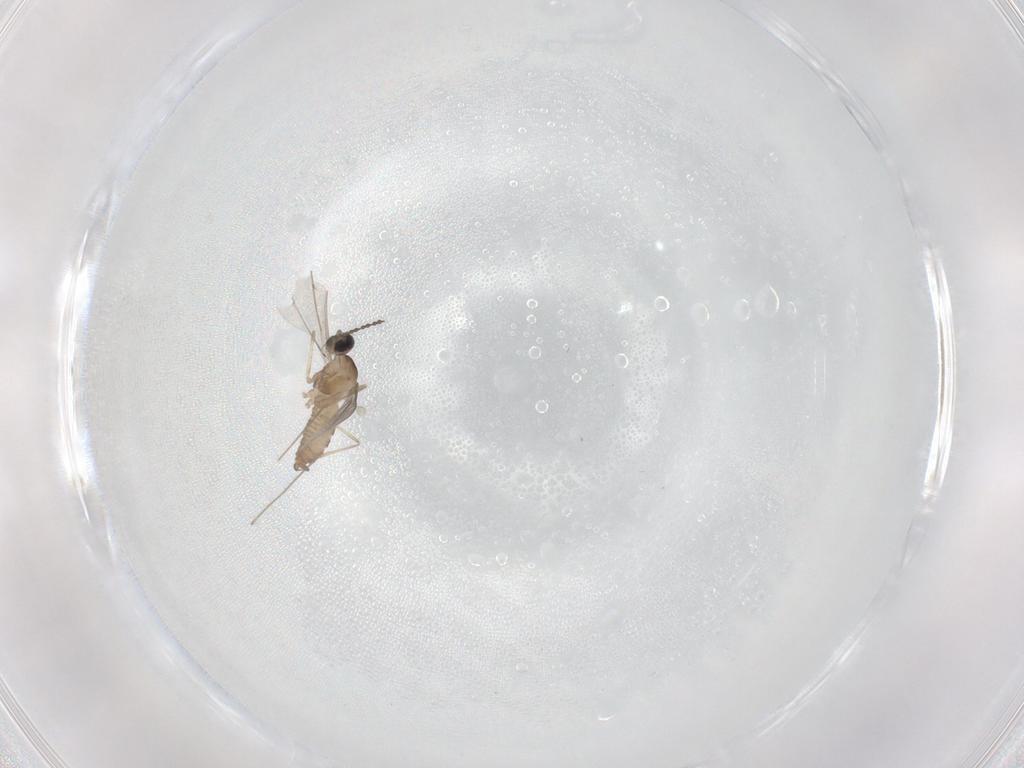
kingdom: Animalia
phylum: Arthropoda
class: Insecta
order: Diptera
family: Cecidomyiidae
